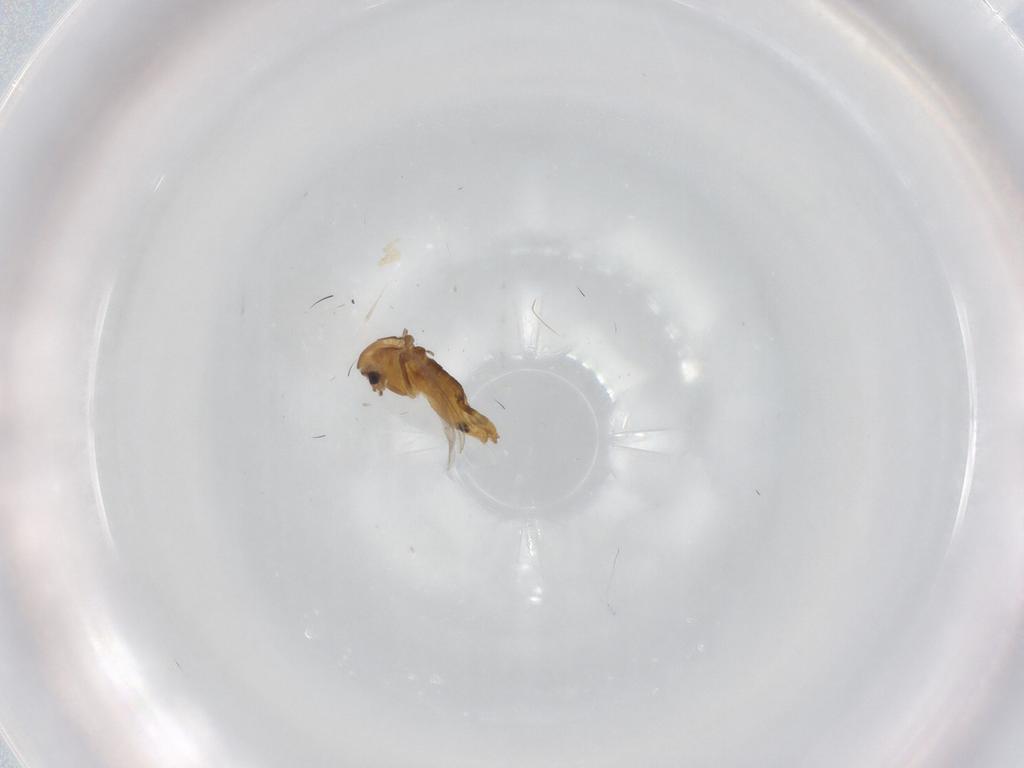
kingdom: Animalia
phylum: Arthropoda
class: Insecta
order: Diptera
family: Chironomidae
